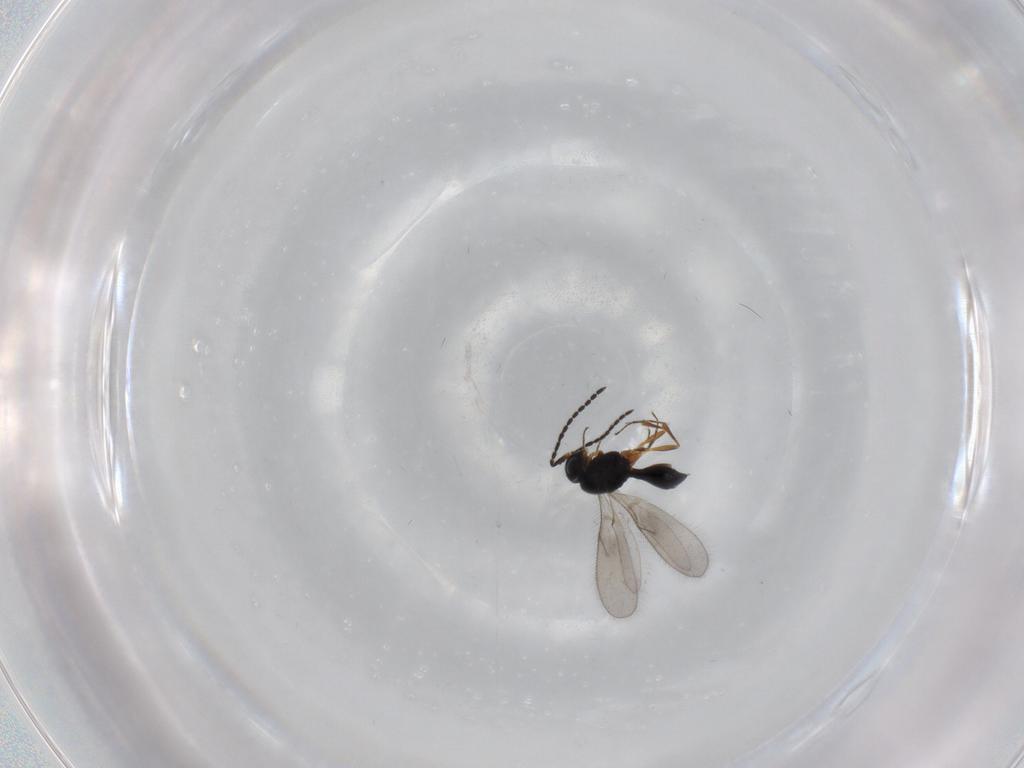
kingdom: Animalia
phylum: Arthropoda
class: Insecta
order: Hymenoptera
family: Scelionidae
